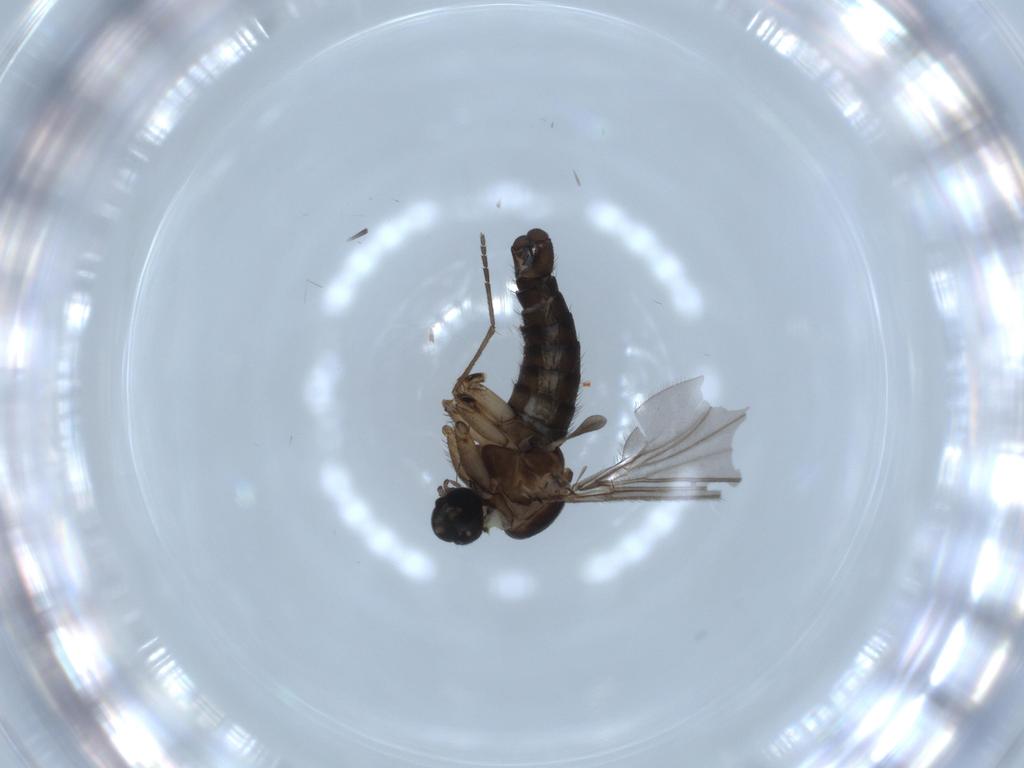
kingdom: Animalia
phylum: Arthropoda
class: Insecta
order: Diptera
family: Sciaridae
